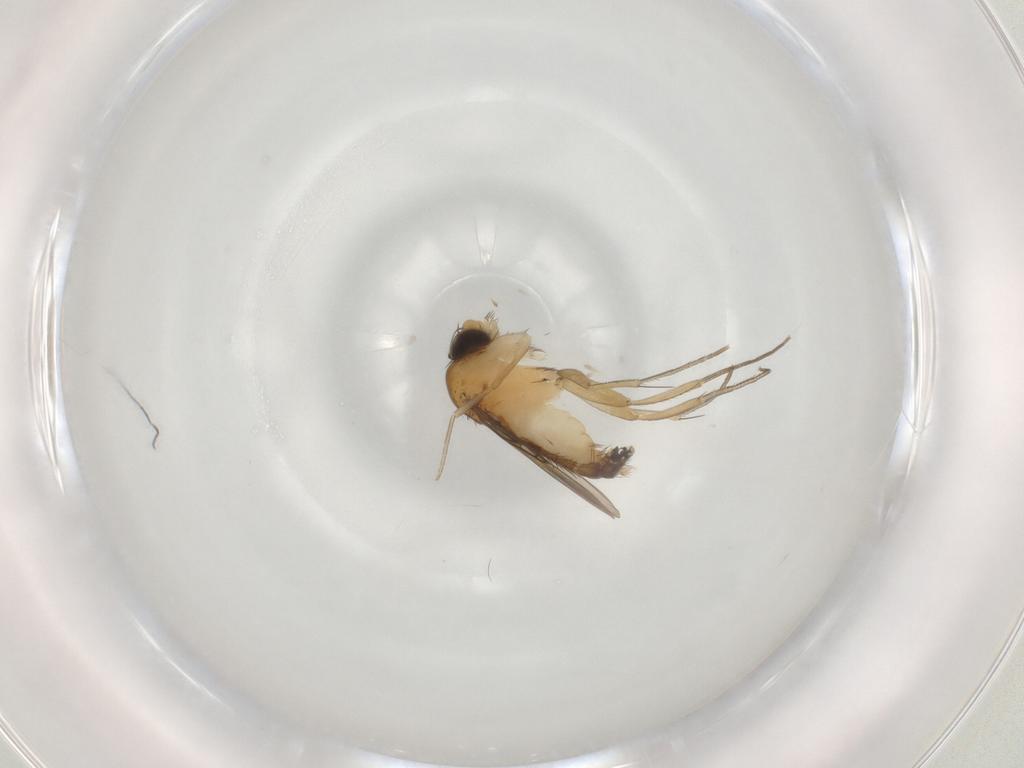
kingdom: Animalia
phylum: Arthropoda
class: Insecta
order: Diptera
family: Phoridae
